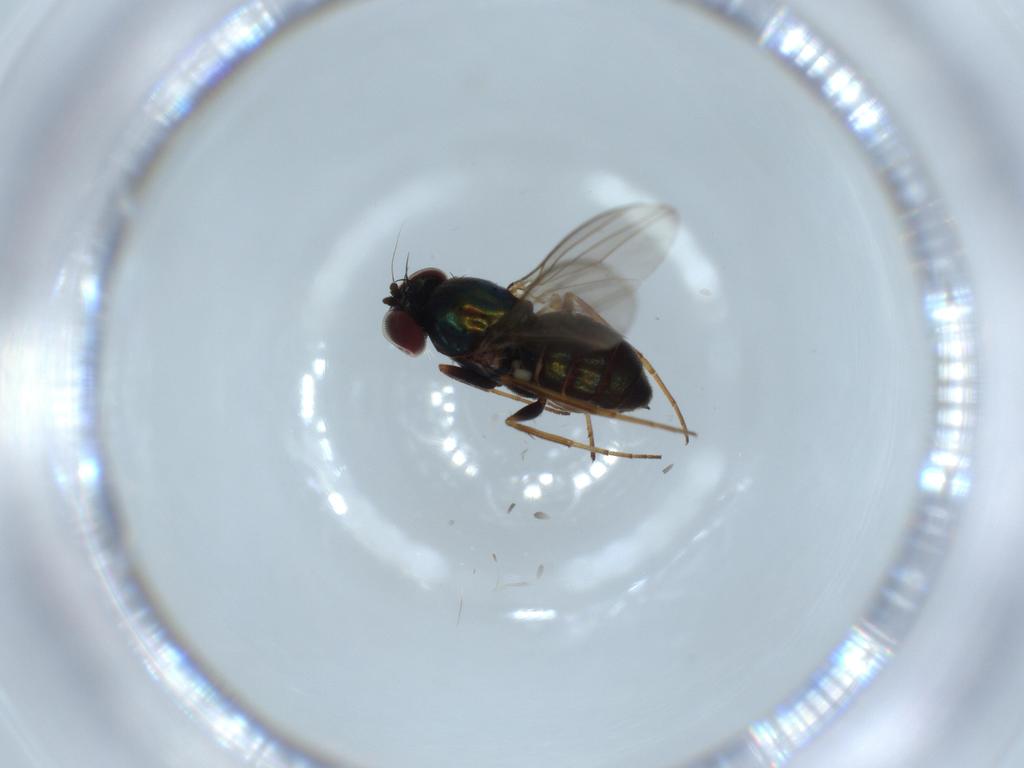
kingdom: Animalia
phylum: Arthropoda
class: Insecta
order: Diptera
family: Dolichopodidae
